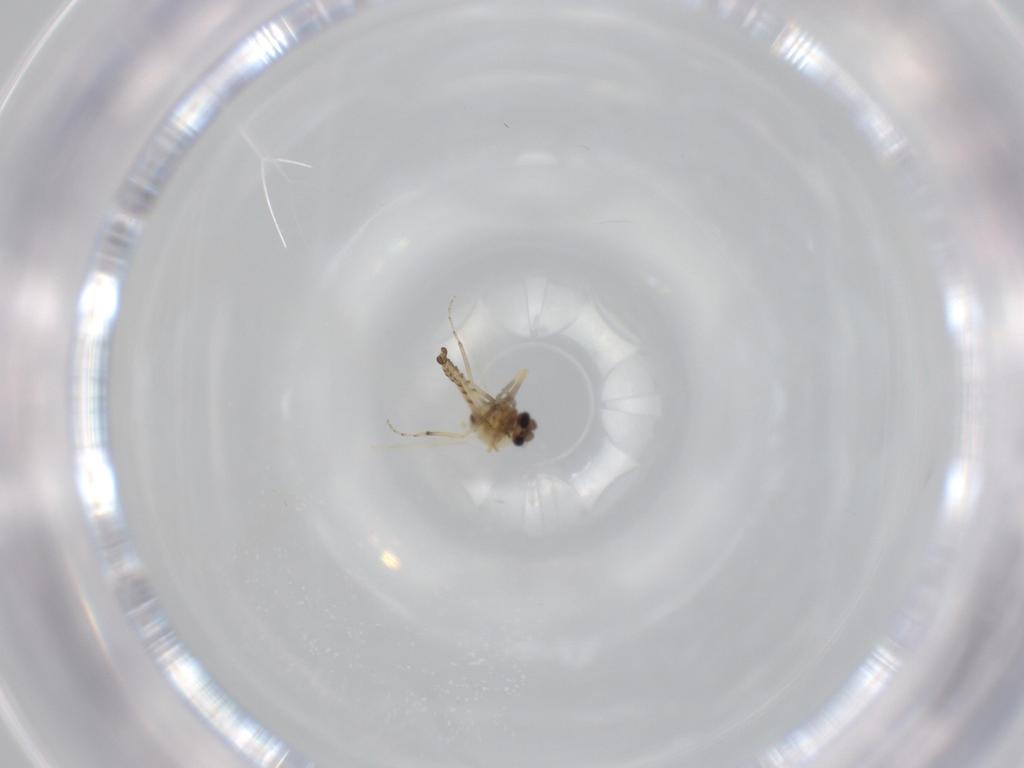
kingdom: Animalia
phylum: Arthropoda
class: Insecta
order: Diptera
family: Ceratopogonidae
